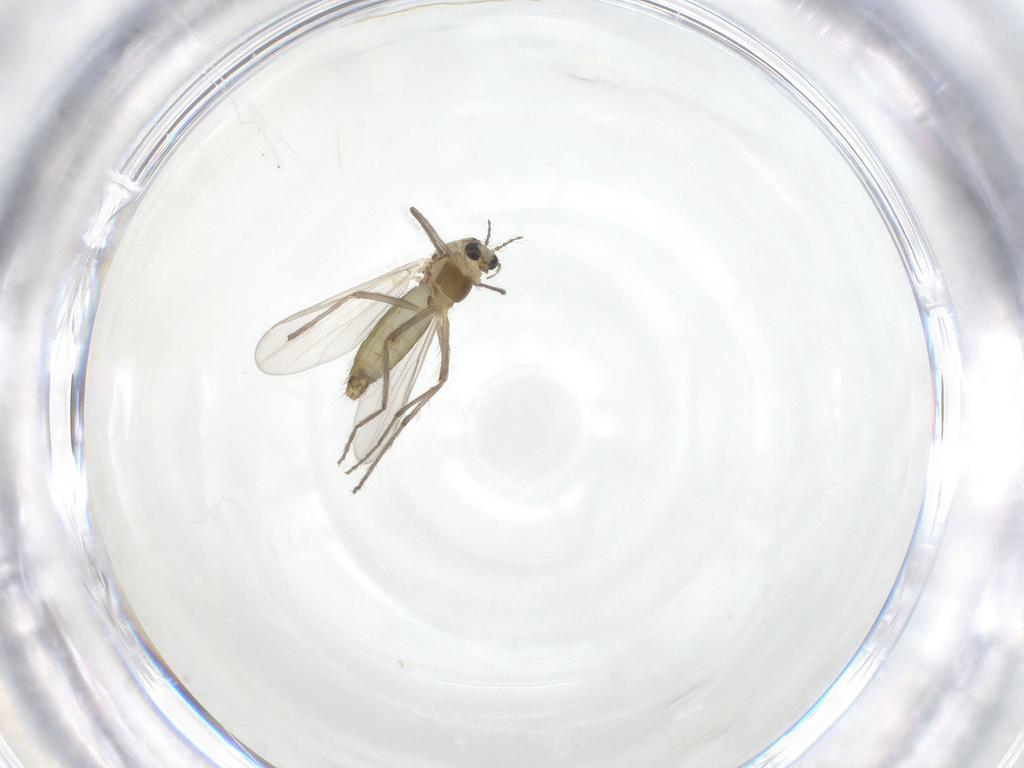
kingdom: Animalia
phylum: Arthropoda
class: Insecta
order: Diptera
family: Chironomidae
